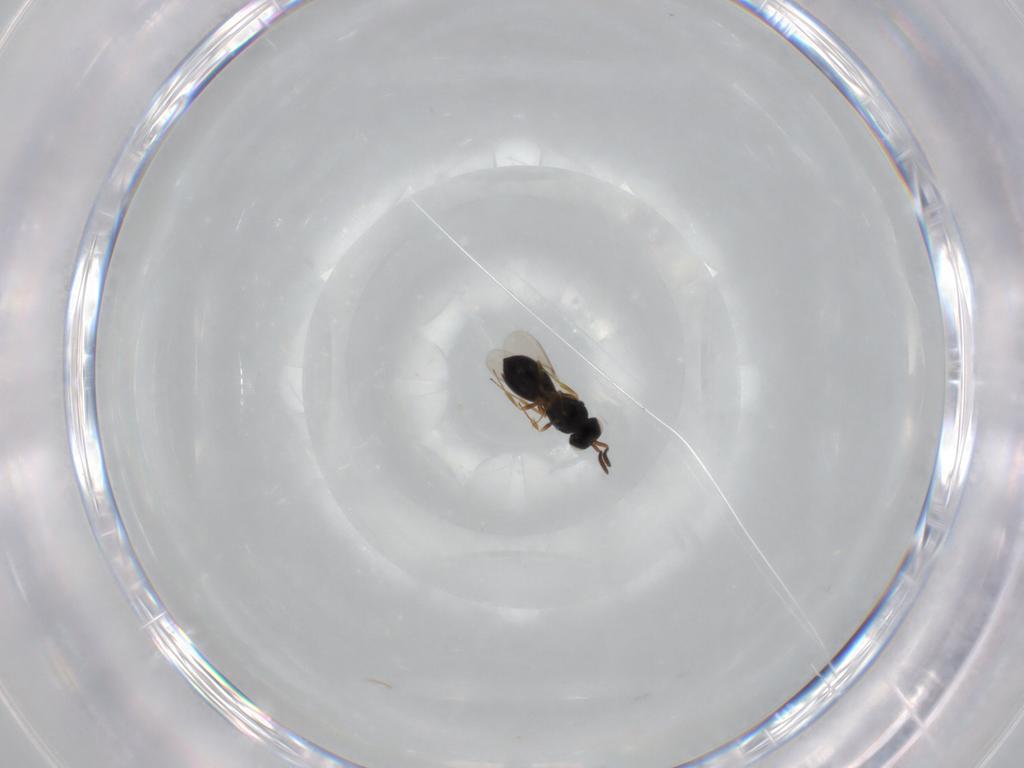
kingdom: Animalia
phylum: Arthropoda
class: Insecta
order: Hymenoptera
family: Scelionidae
